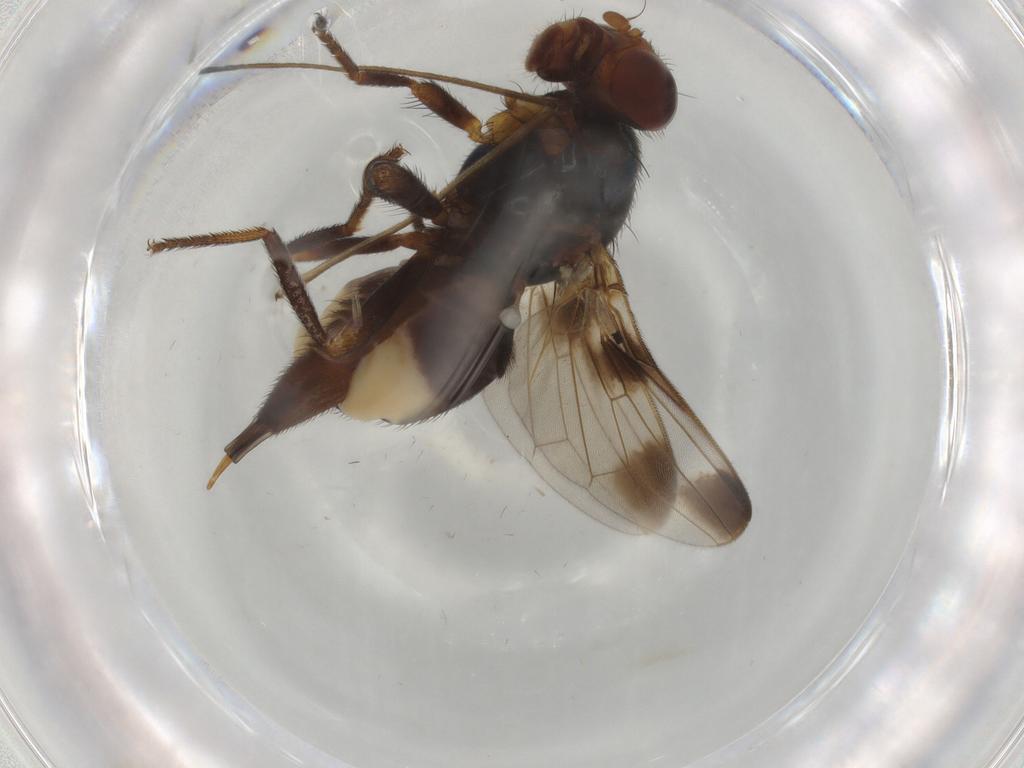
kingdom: Animalia
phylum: Arthropoda
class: Insecta
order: Diptera
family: Ulidiidae
